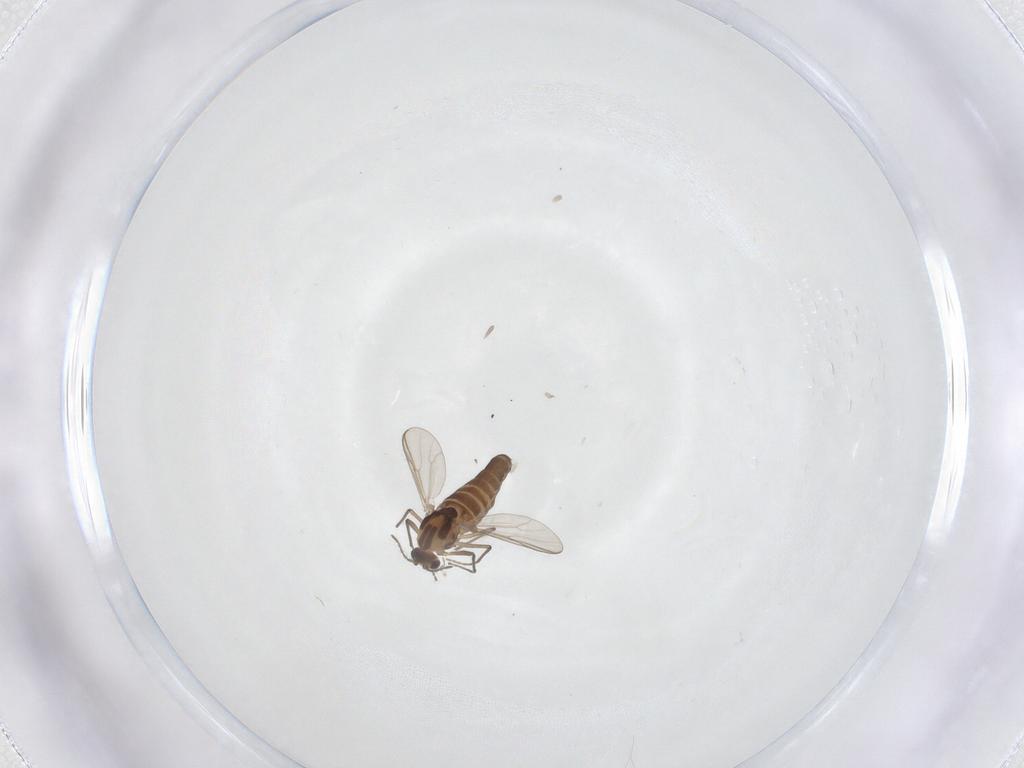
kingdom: Animalia
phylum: Arthropoda
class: Insecta
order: Diptera
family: Chironomidae
